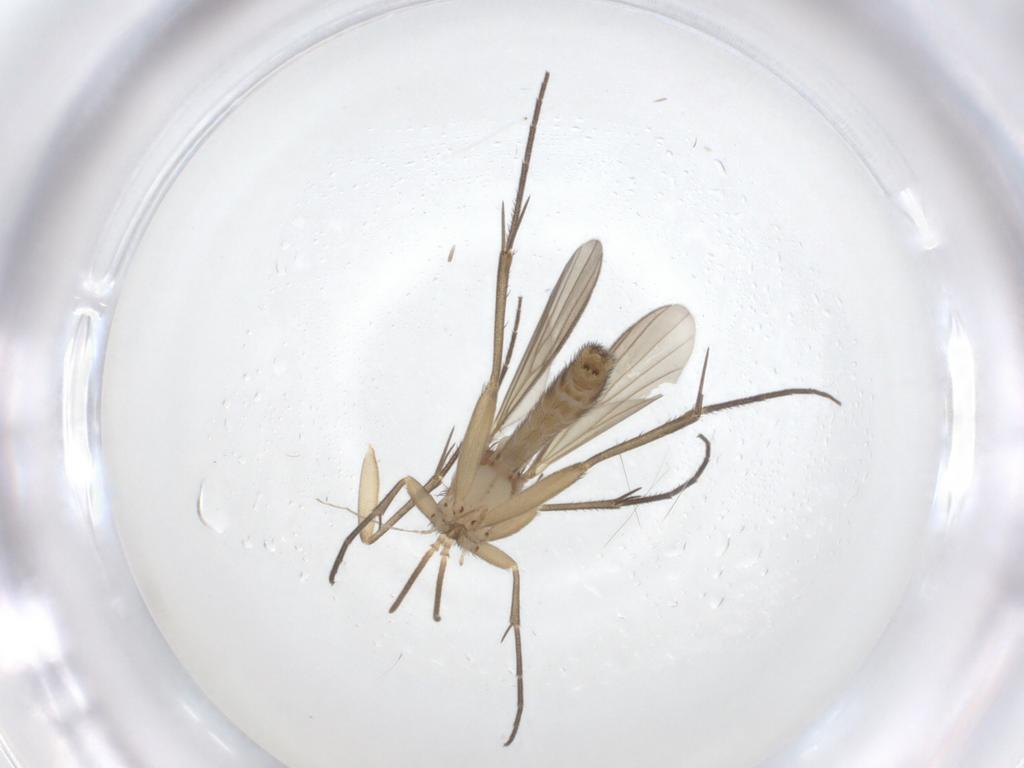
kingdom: Animalia
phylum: Arthropoda
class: Insecta
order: Diptera
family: Mycetophilidae
